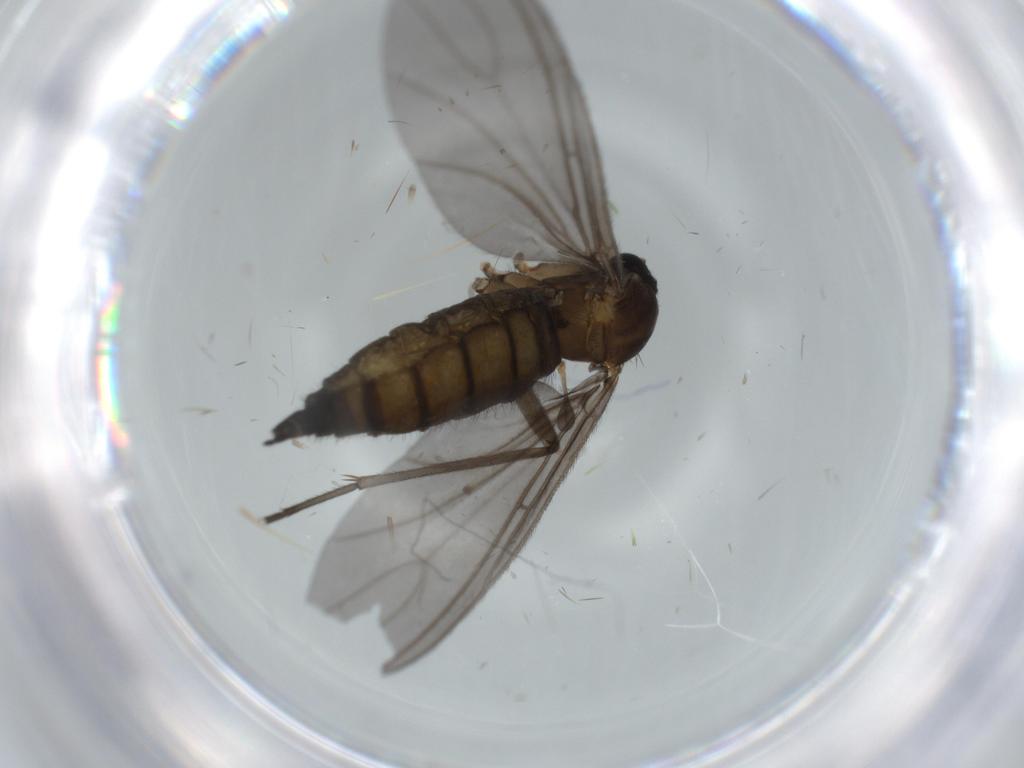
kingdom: Animalia
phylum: Arthropoda
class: Insecta
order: Diptera
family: Sciaridae
